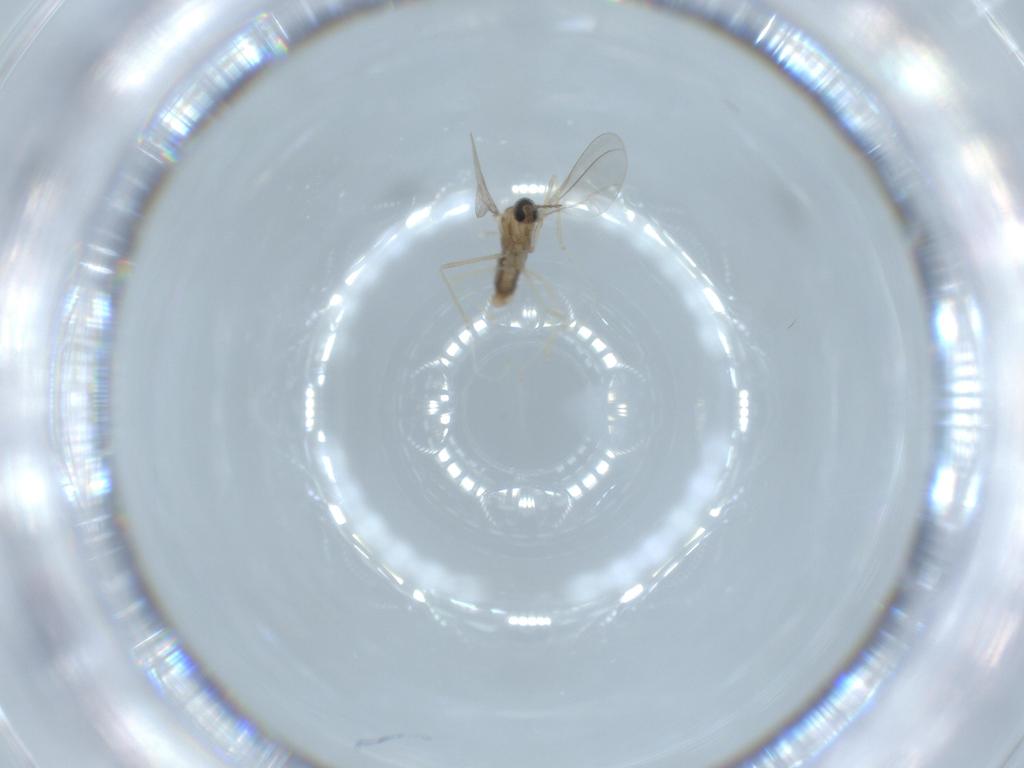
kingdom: Animalia
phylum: Arthropoda
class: Insecta
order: Diptera
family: Cecidomyiidae
